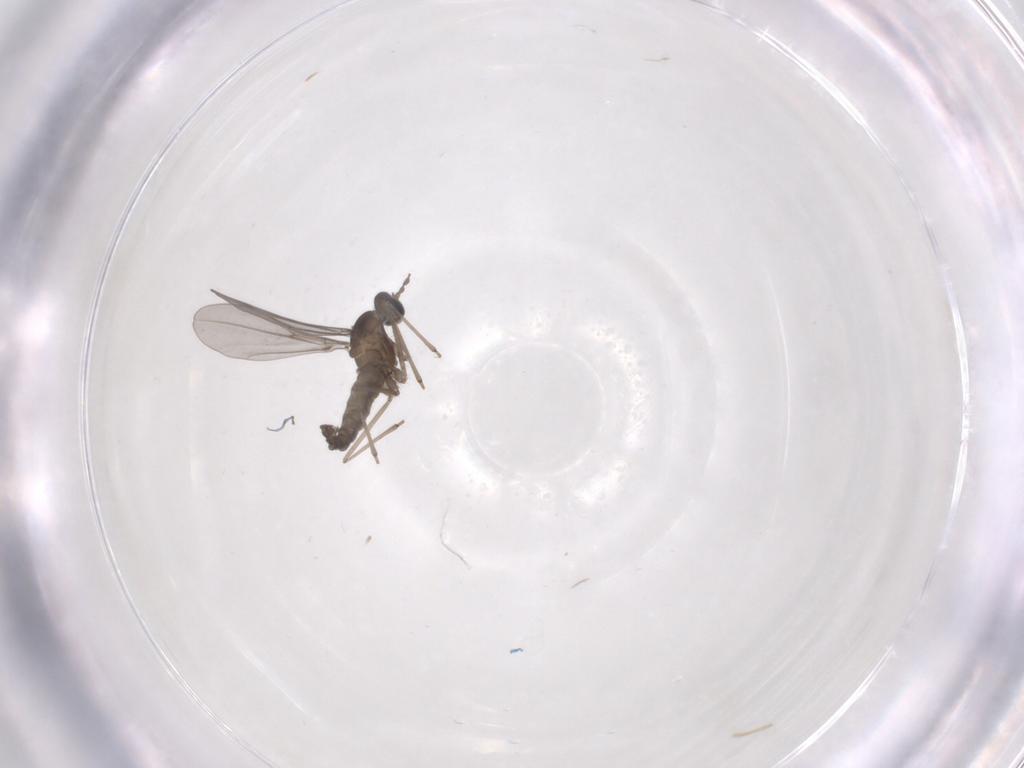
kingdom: Animalia
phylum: Arthropoda
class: Insecta
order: Diptera
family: Cecidomyiidae
